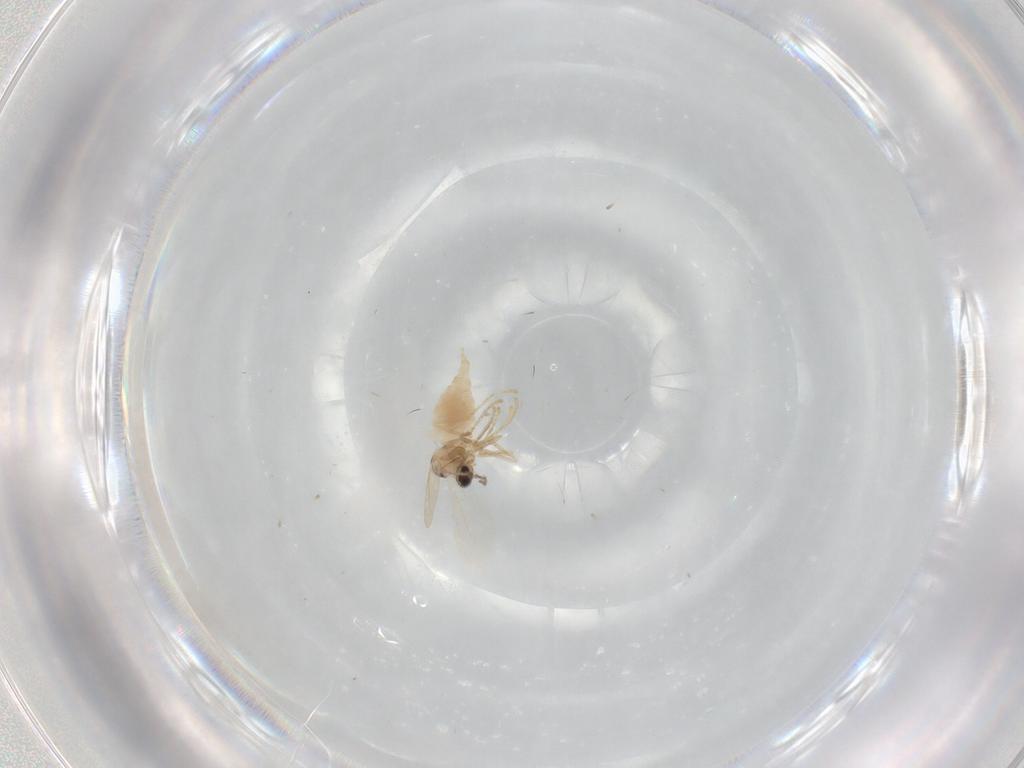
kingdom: Animalia
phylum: Arthropoda
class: Insecta
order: Diptera
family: Cecidomyiidae
